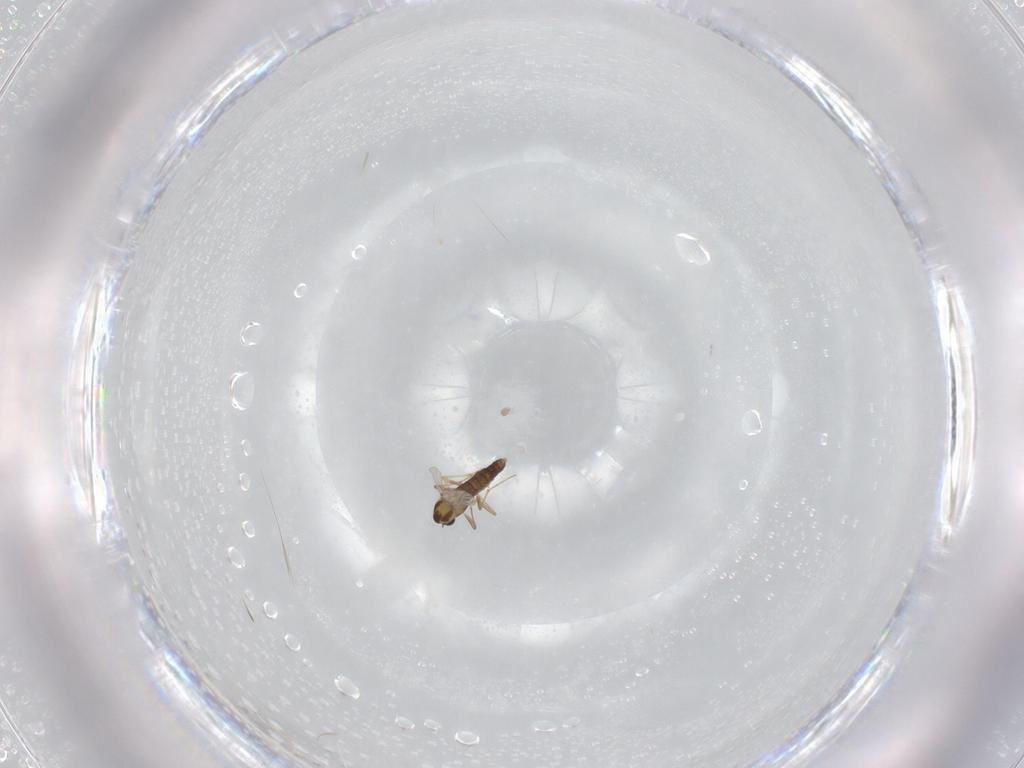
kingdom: Animalia
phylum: Arthropoda
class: Insecta
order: Diptera
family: Chironomidae
